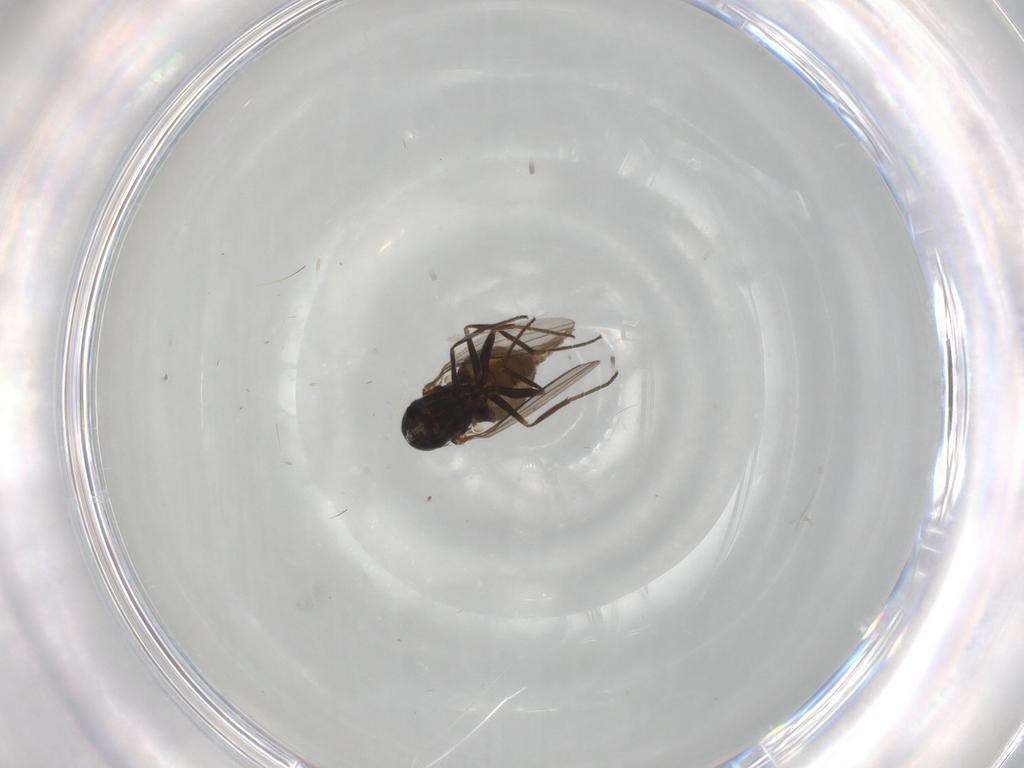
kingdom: Animalia
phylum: Arthropoda
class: Insecta
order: Diptera
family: Dolichopodidae
